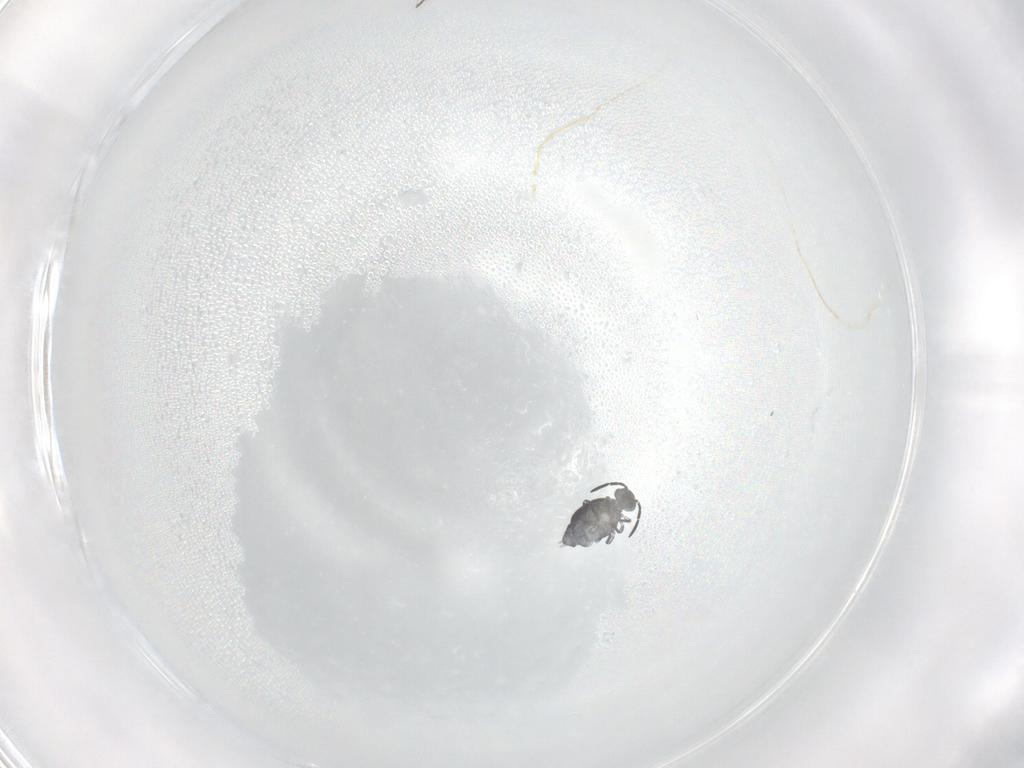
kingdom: Animalia
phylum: Arthropoda
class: Collembola
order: Symphypleona
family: Katiannidae
